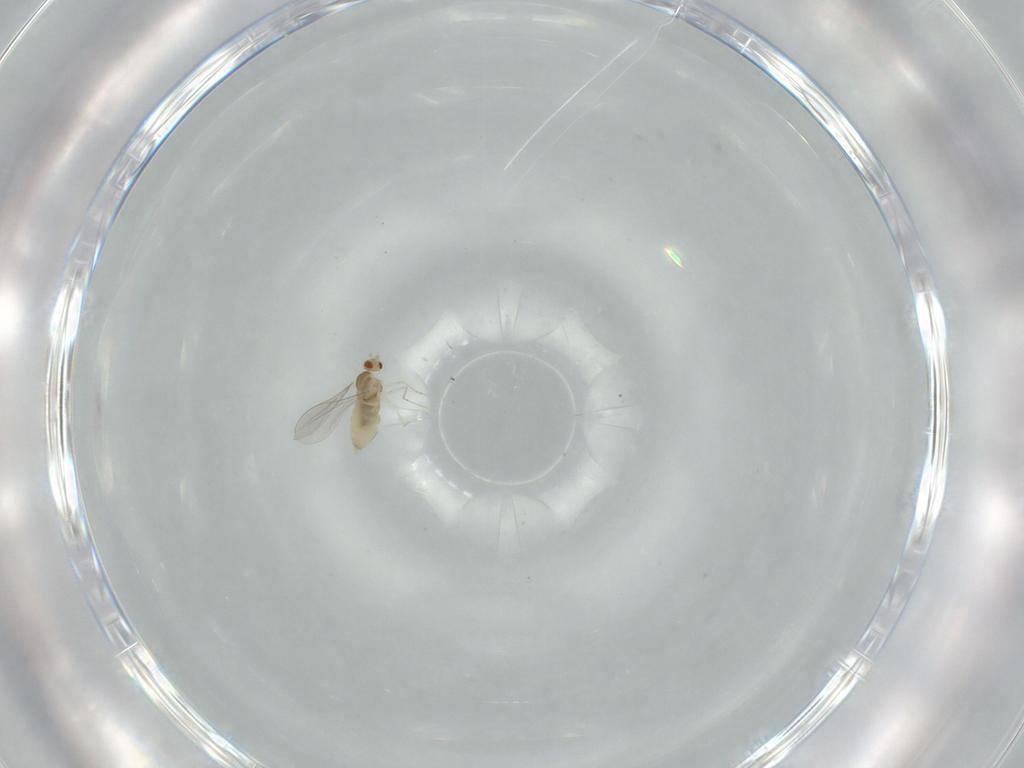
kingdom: Animalia
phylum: Arthropoda
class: Insecta
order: Diptera
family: Cecidomyiidae
